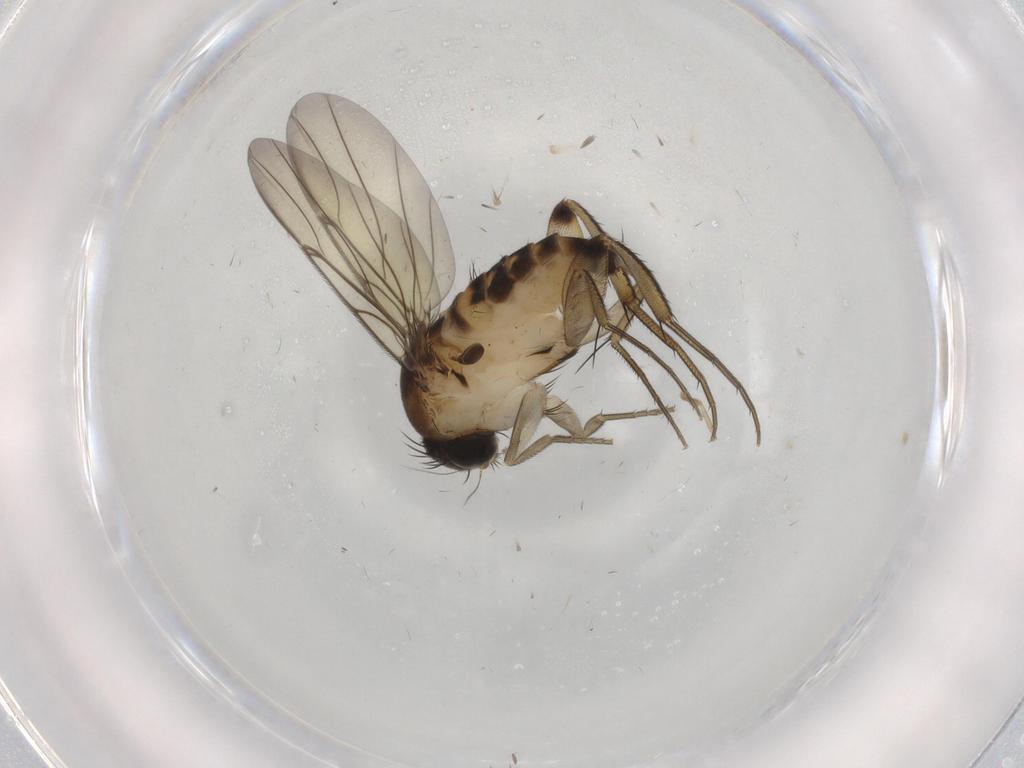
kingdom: Animalia
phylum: Arthropoda
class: Insecta
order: Diptera
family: Phoridae
